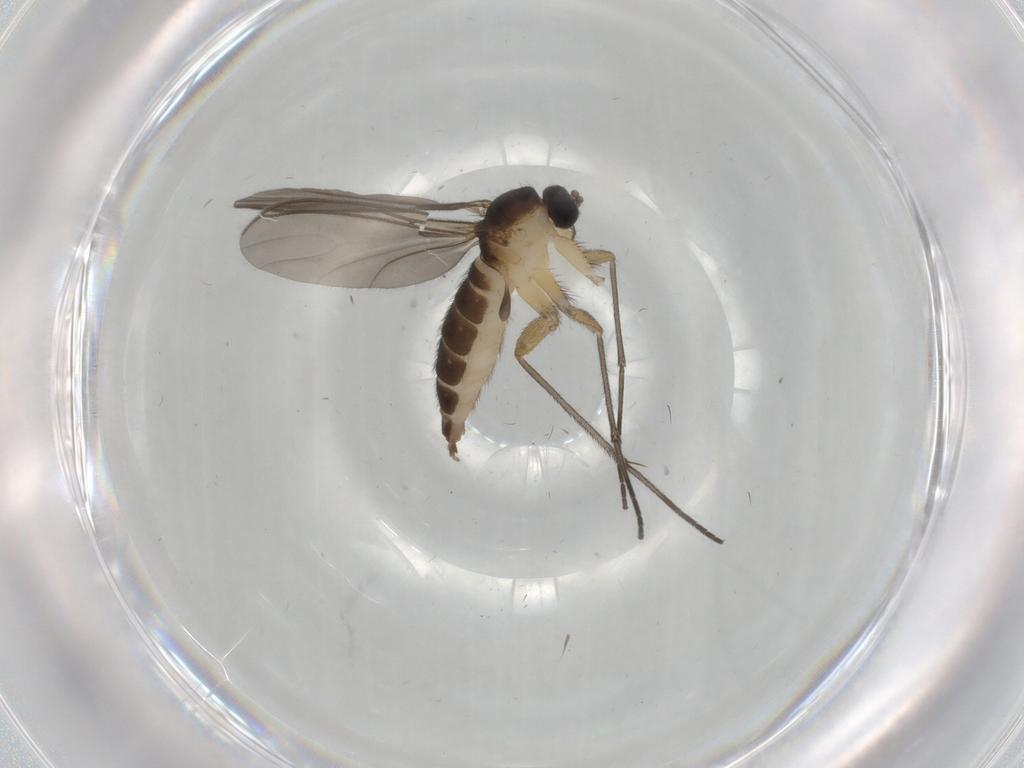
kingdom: Animalia
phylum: Arthropoda
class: Insecta
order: Diptera
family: Sciaridae
